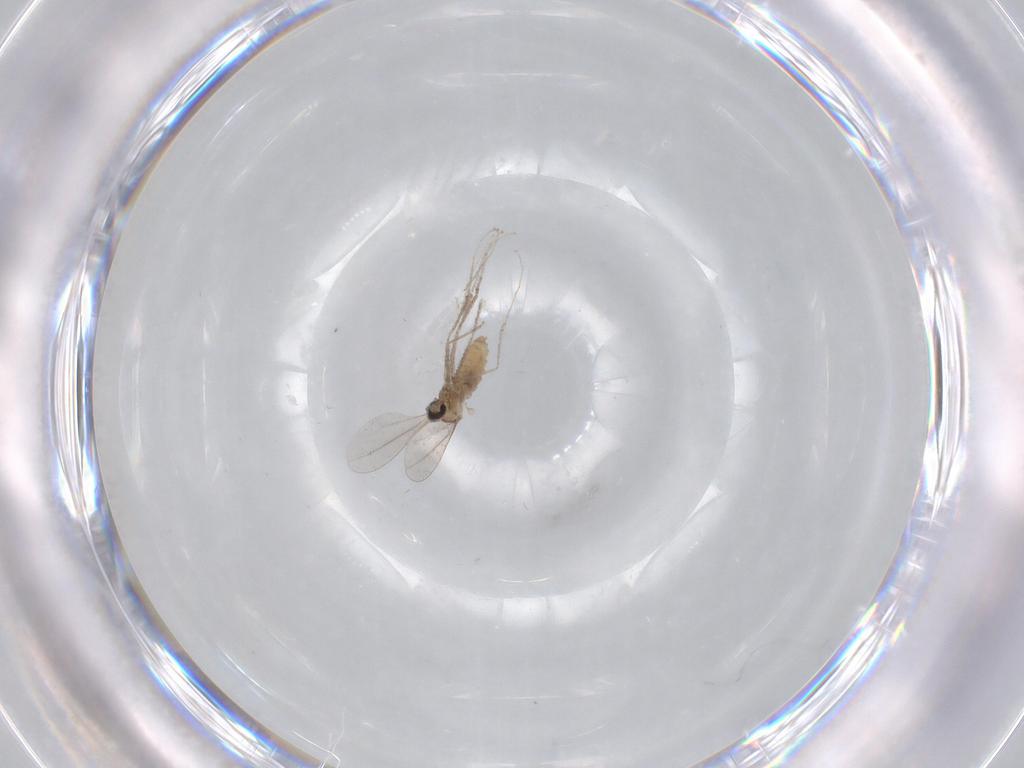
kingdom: Animalia
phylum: Arthropoda
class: Insecta
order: Diptera
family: Cecidomyiidae
